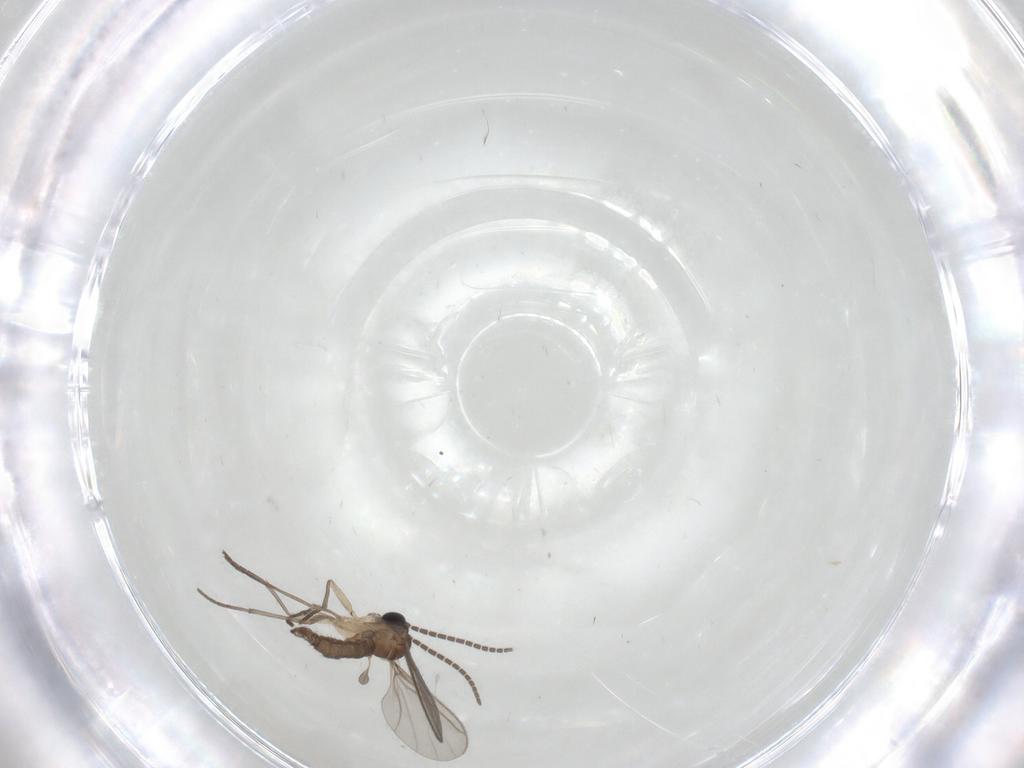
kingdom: Animalia
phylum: Arthropoda
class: Insecta
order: Diptera
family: Sciaridae
